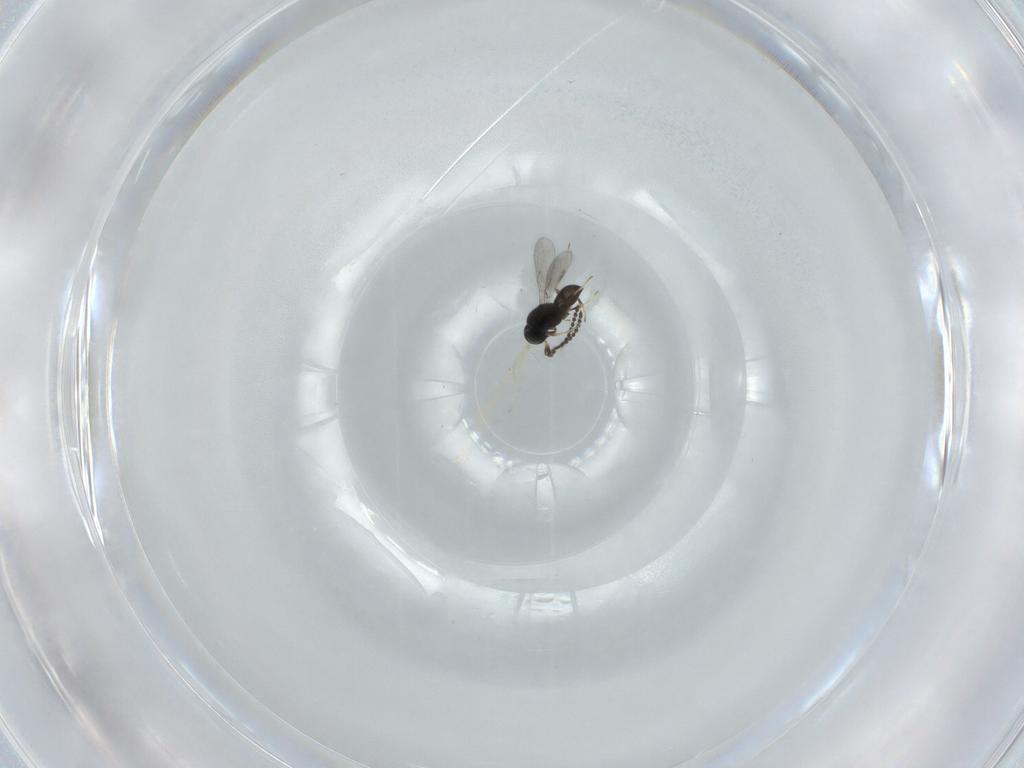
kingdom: Animalia
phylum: Arthropoda
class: Insecta
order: Hymenoptera
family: Scelionidae
